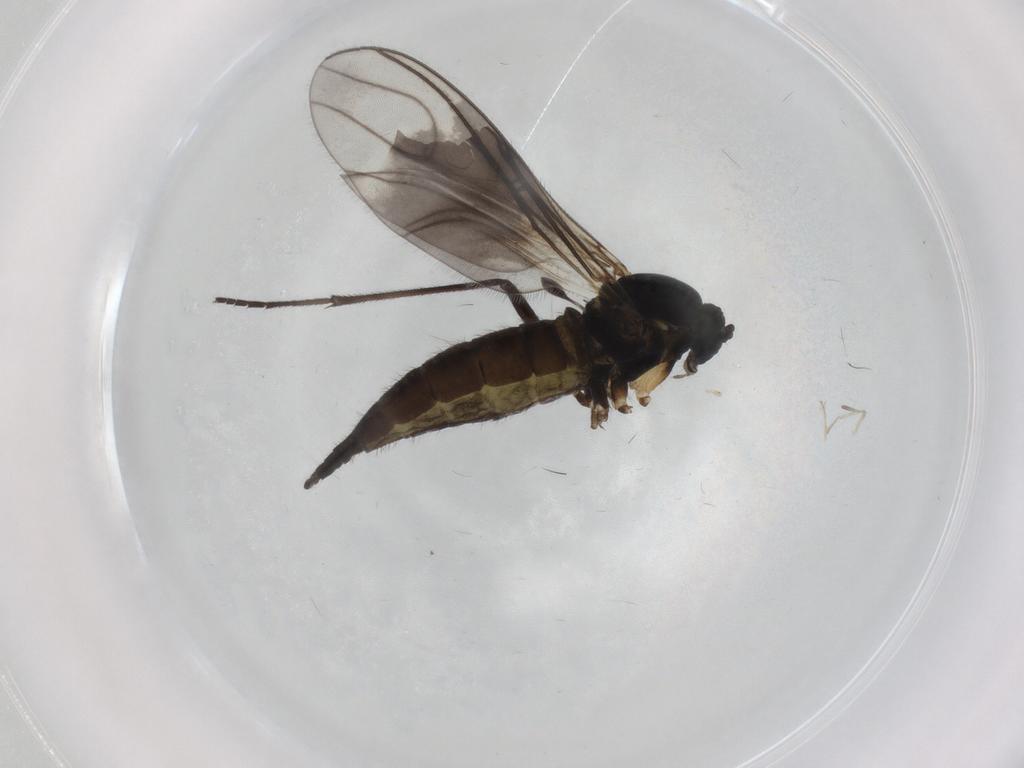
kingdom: Animalia
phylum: Arthropoda
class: Insecta
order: Diptera
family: Sciaridae
